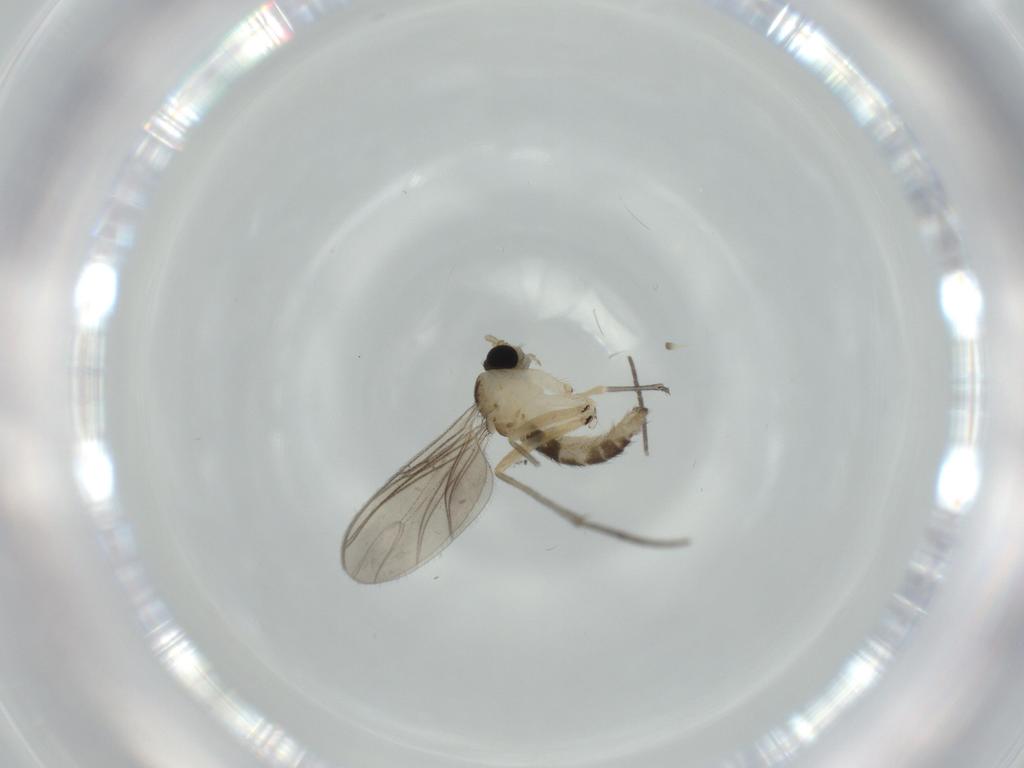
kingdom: Animalia
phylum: Arthropoda
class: Insecta
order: Diptera
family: Sciaridae
